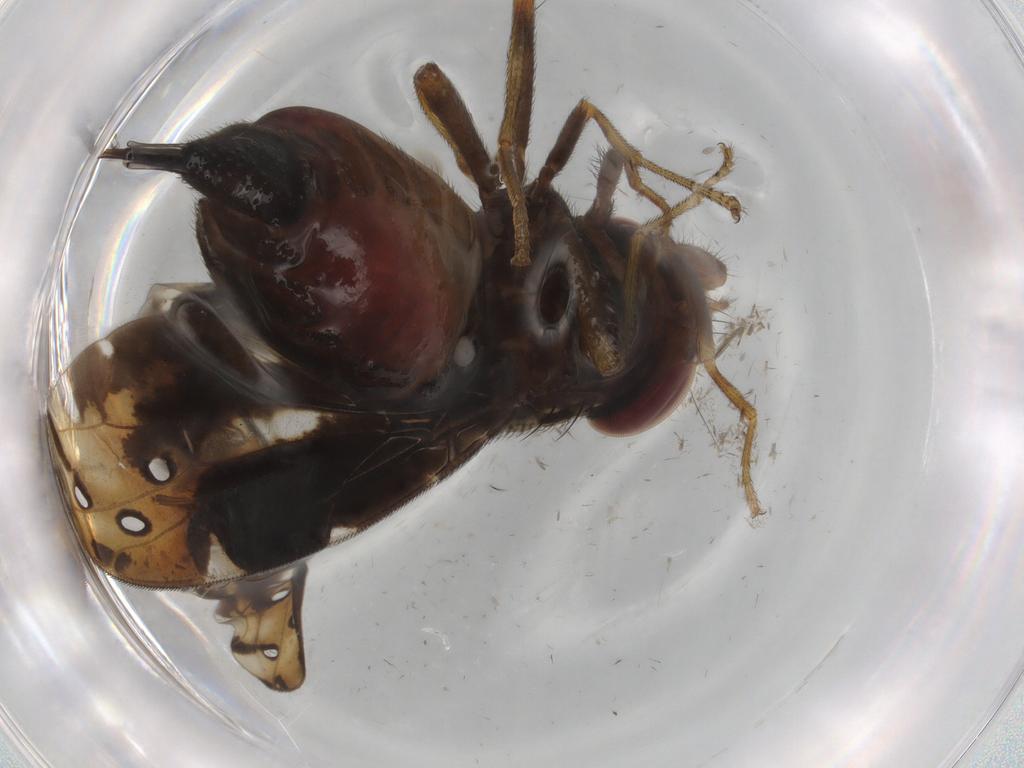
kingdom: Animalia
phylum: Arthropoda
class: Insecta
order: Diptera
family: Ulidiidae
